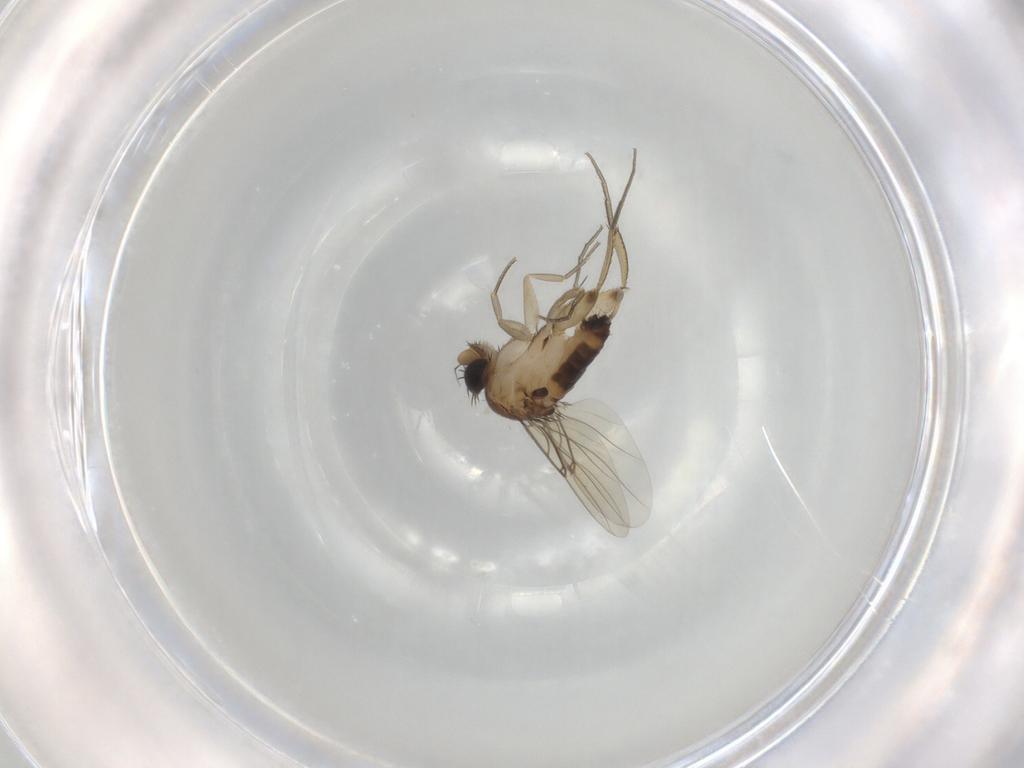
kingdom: Animalia
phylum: Arthropoda
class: Insecta
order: Diptera
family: Phoridae
